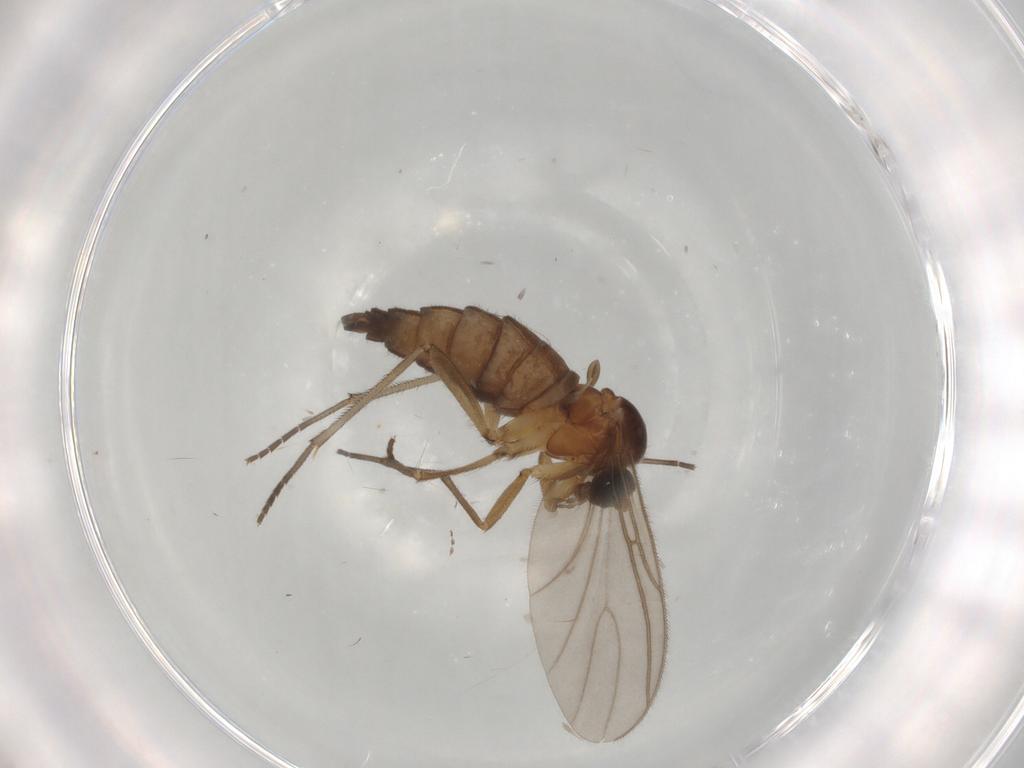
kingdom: Animalia
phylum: Arthropoda
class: Insecta
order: Diptera
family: Sciaridae
